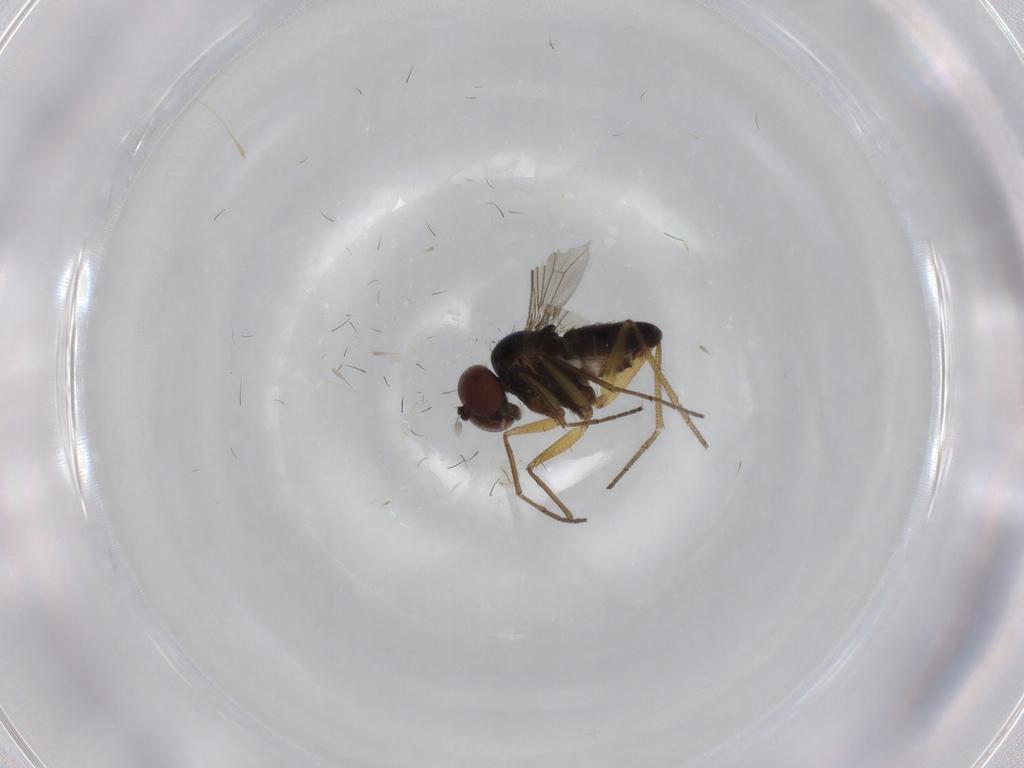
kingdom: Animalia
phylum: Arthropoda
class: Insecta
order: Diptera
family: Dolichopodidae
